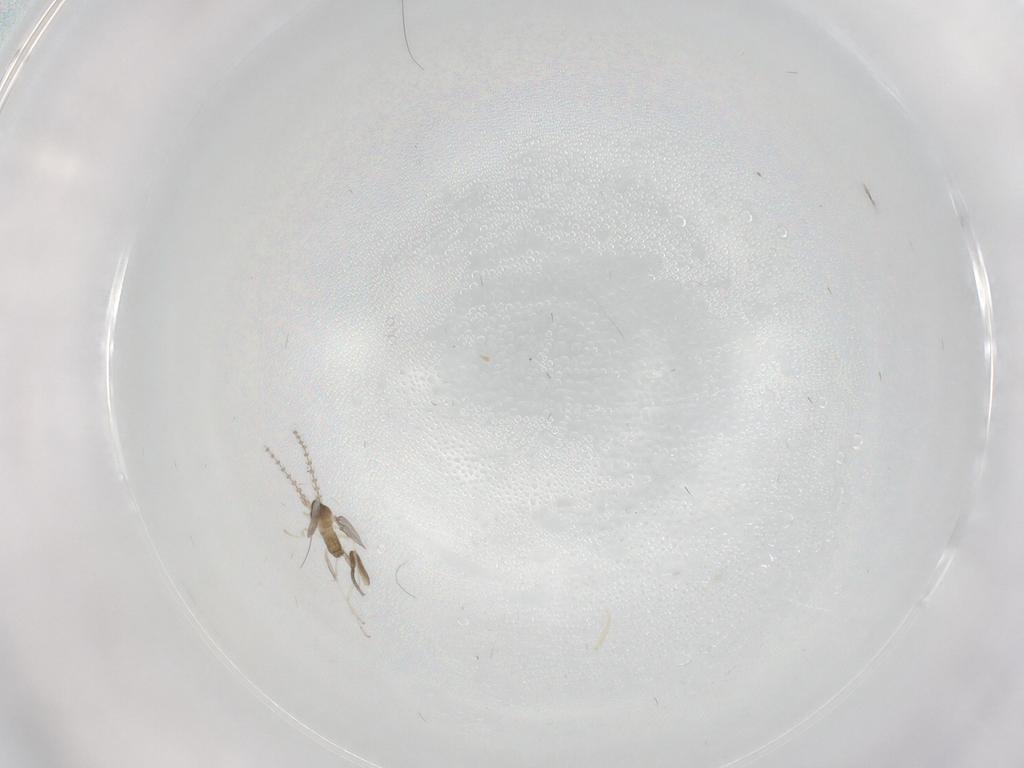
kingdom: Animalia
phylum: Arthropoda
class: Insecta
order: Diptera
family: Cecidomyiidae
